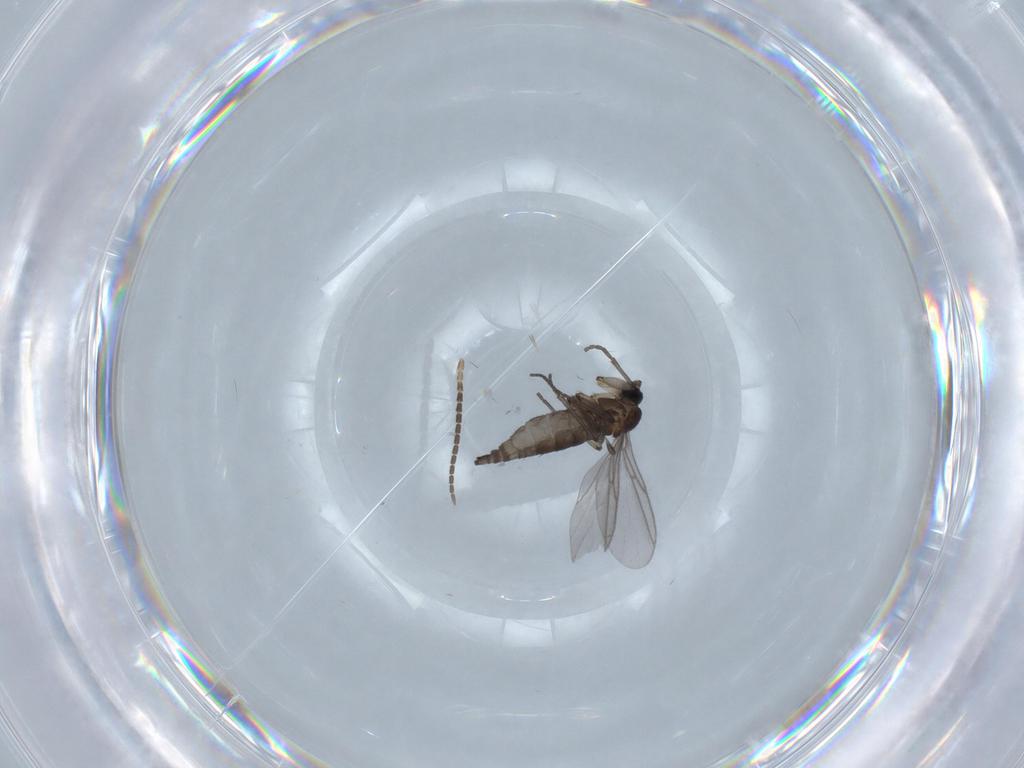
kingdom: Animalia
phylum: Arthropoda
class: Insecta
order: Diptera
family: Sciaridae
